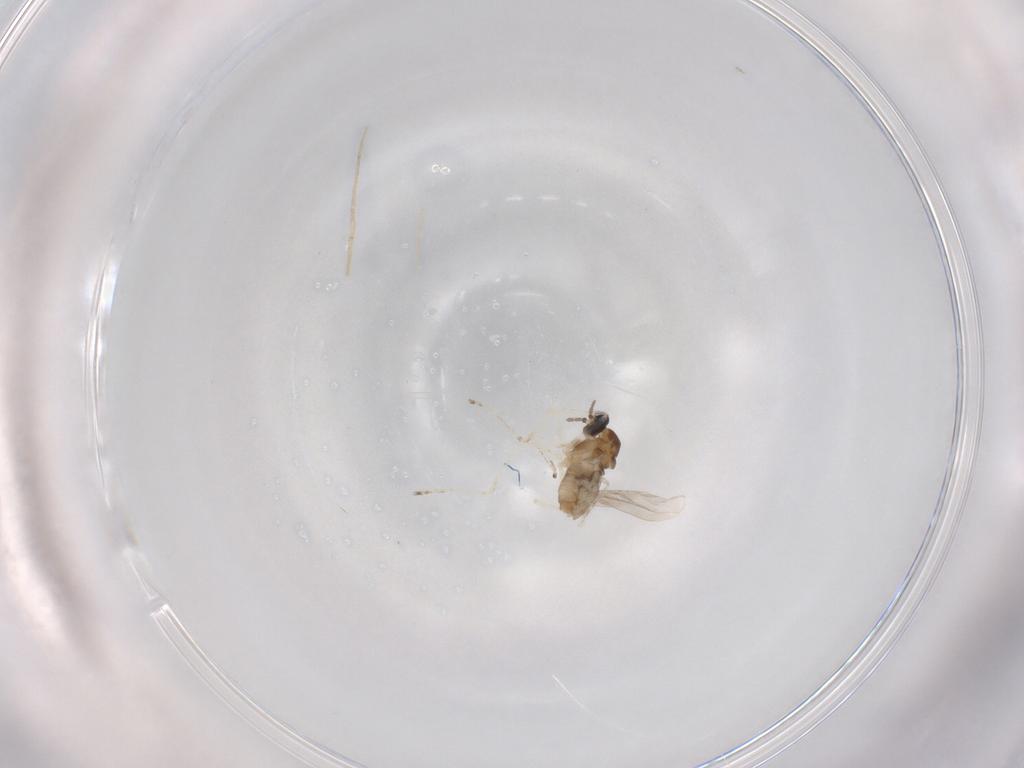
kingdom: Animalia
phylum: Arthropoda
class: Insecta
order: Diptera
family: Cecidomyiidae
